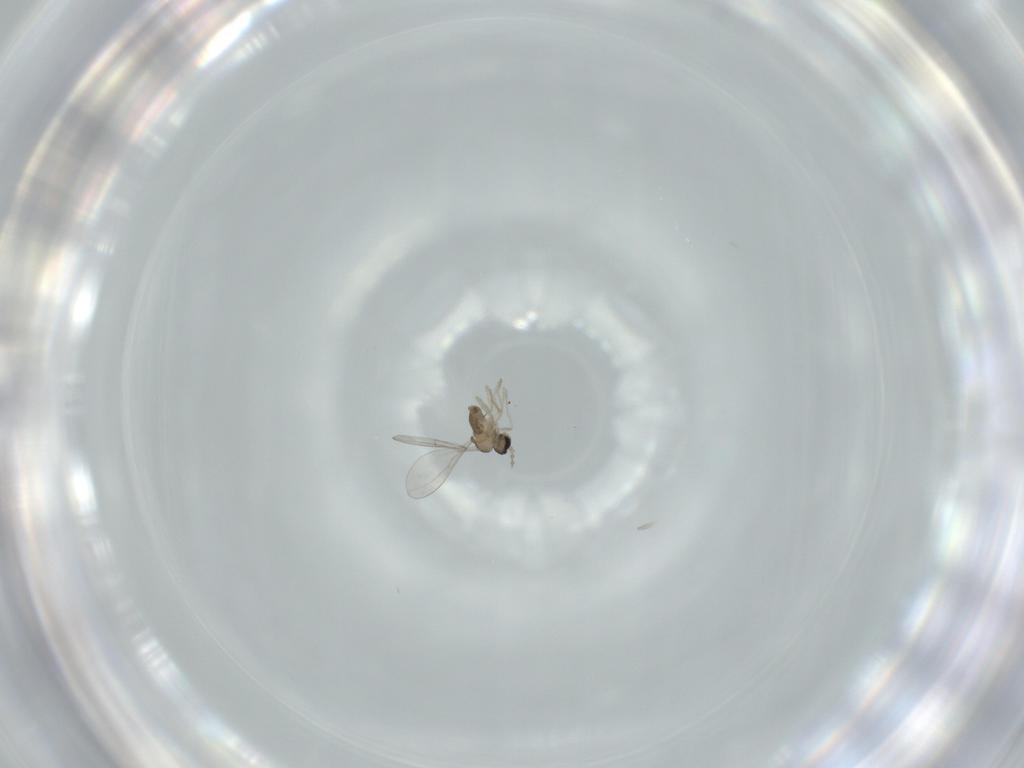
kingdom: Animalia
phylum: Arthropoda
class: Insecta
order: Diptera
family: Cecidomyiidae
